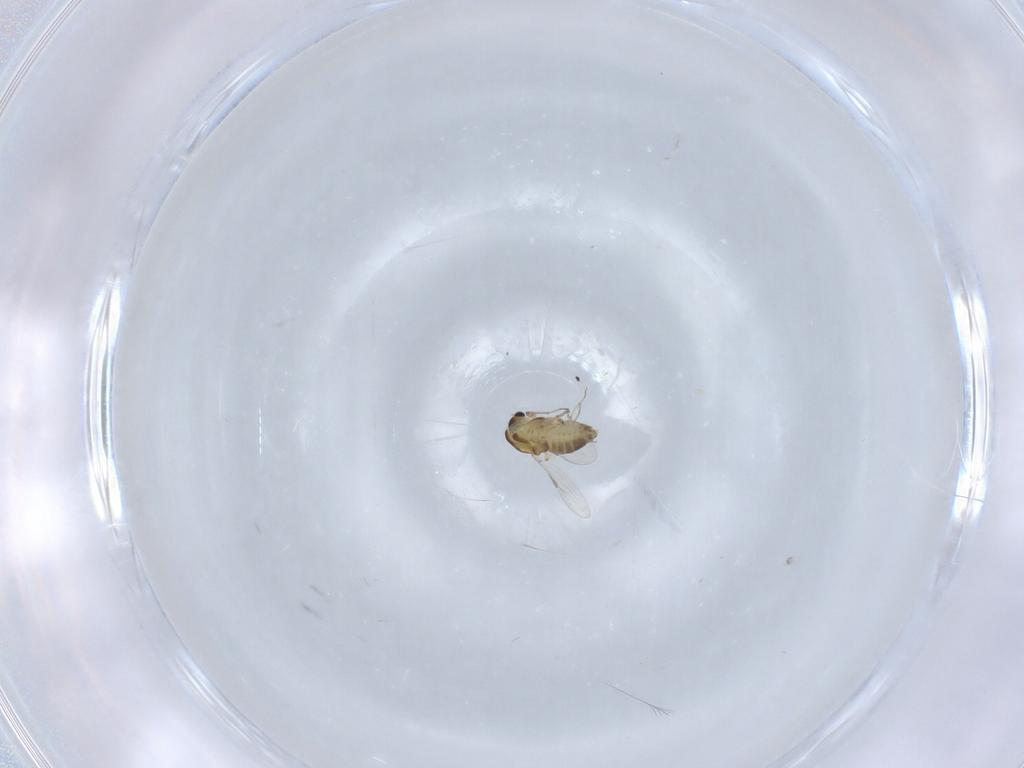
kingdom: Animalia
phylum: Arthropoda
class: Insecta
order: Diptera
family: Chironomidae
